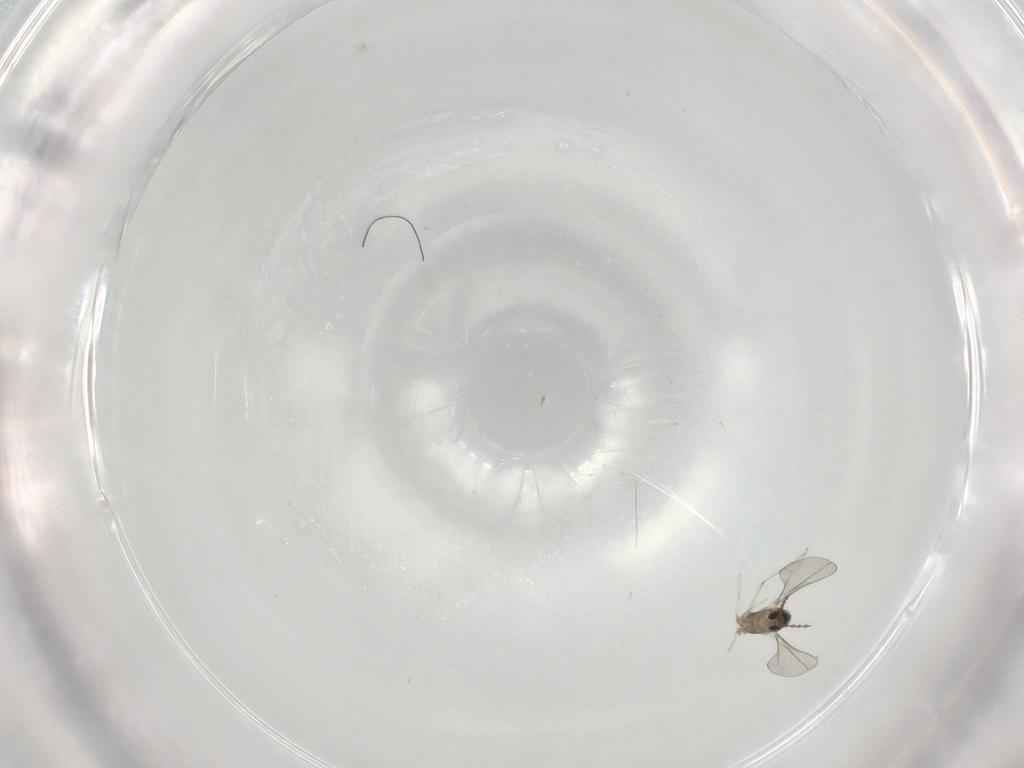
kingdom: Animalia
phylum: Arthropoda
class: Insecta
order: Diptera
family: Cecidomyiidae
